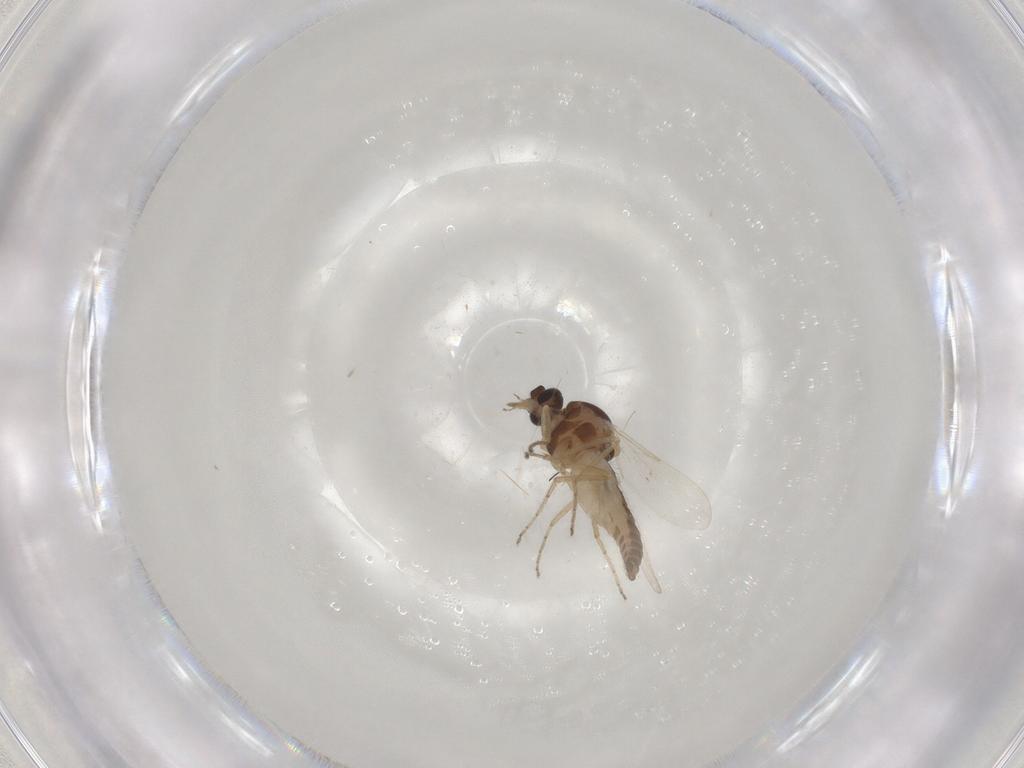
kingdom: Animalia
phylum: Arthropoda
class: Insecta
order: Diptera
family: Ceratopogonidae
